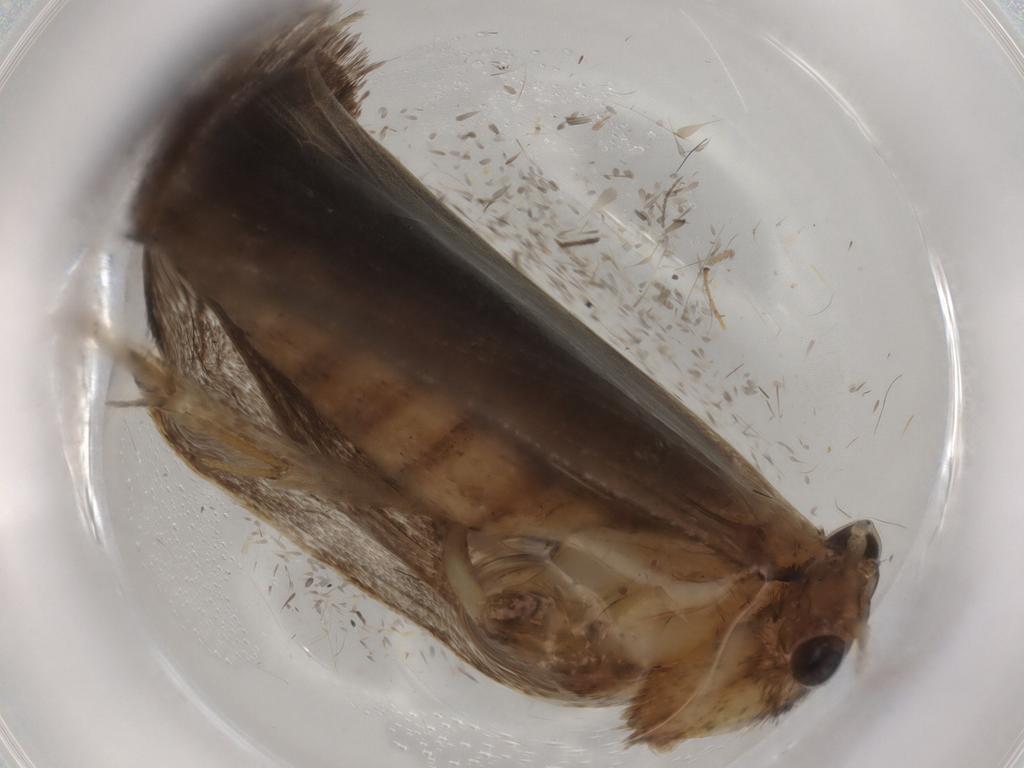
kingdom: Animalia
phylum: Arthropoda
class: Insecta
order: Lepidoptera
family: Tineidae
